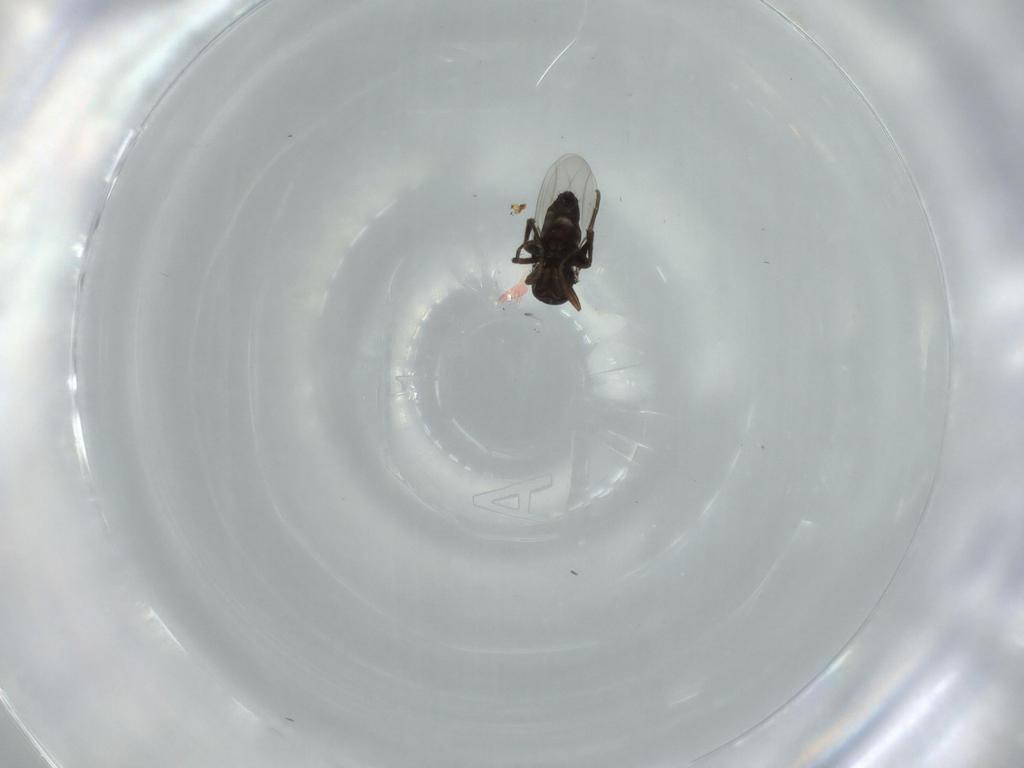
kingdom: Animalia
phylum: Arthropoda
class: Insecta
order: Diptera
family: Phoridae
